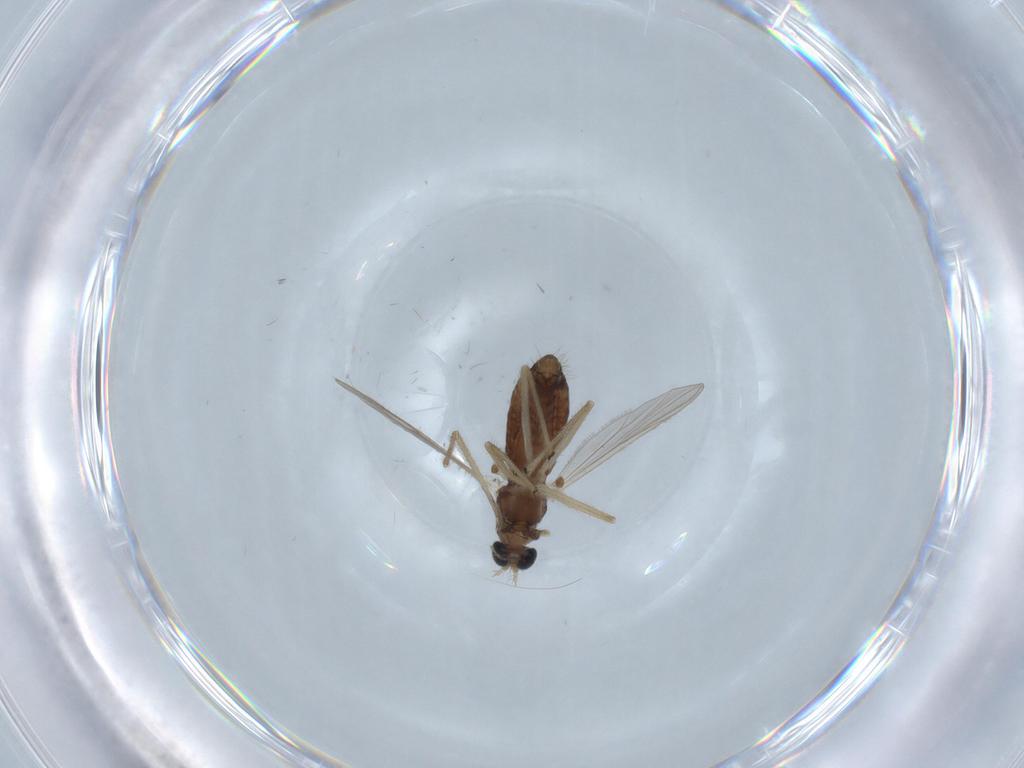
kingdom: Animalia
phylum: Arthropoda
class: Insecta
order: Diptera
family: Chironomidae
